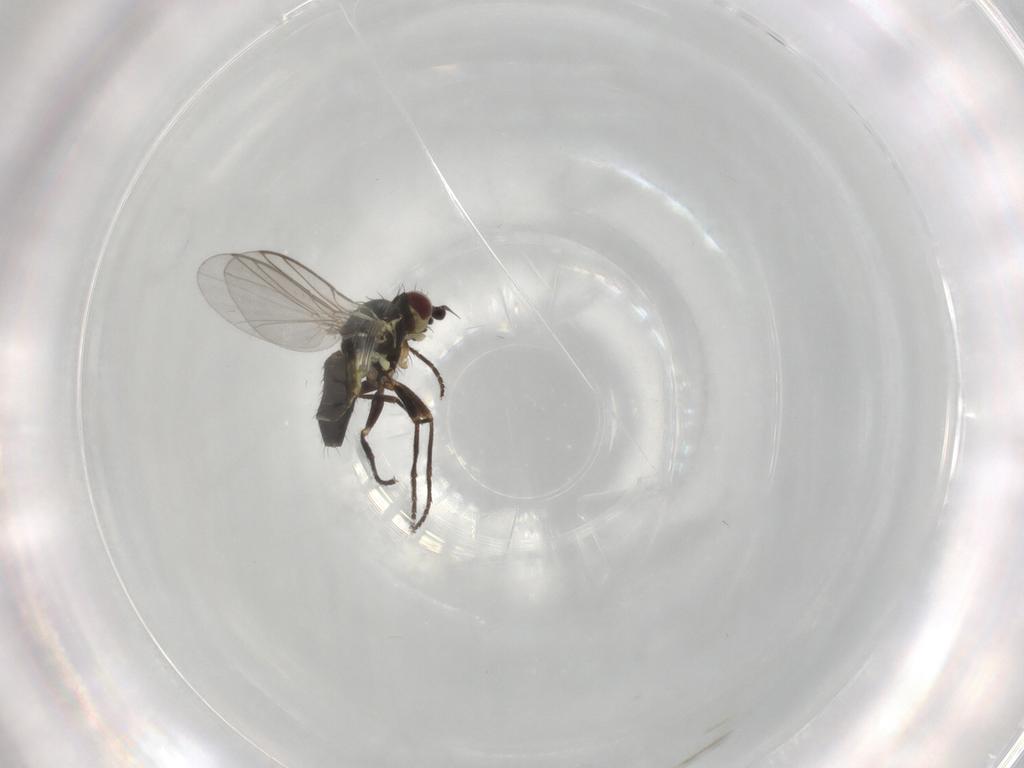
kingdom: Animalia
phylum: Arthropoda
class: Insecta
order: Diptera
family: Agromyzidae
